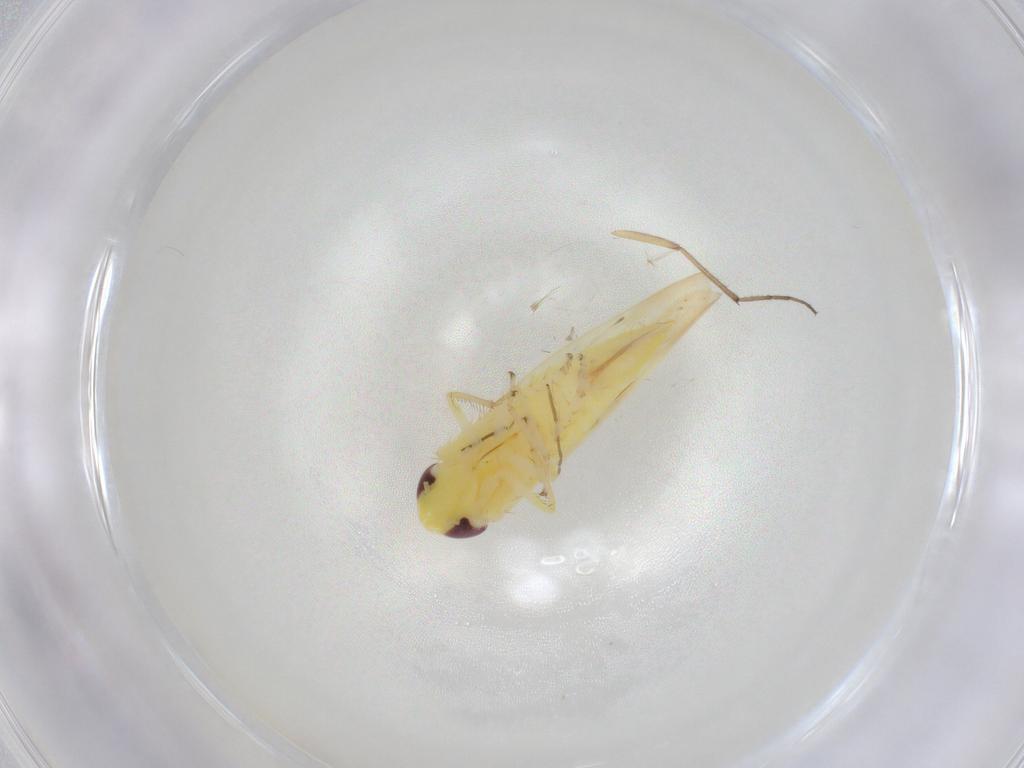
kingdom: Animalia
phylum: Arthropoda
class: Insecta
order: Hemiptera
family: Cicadellidae
